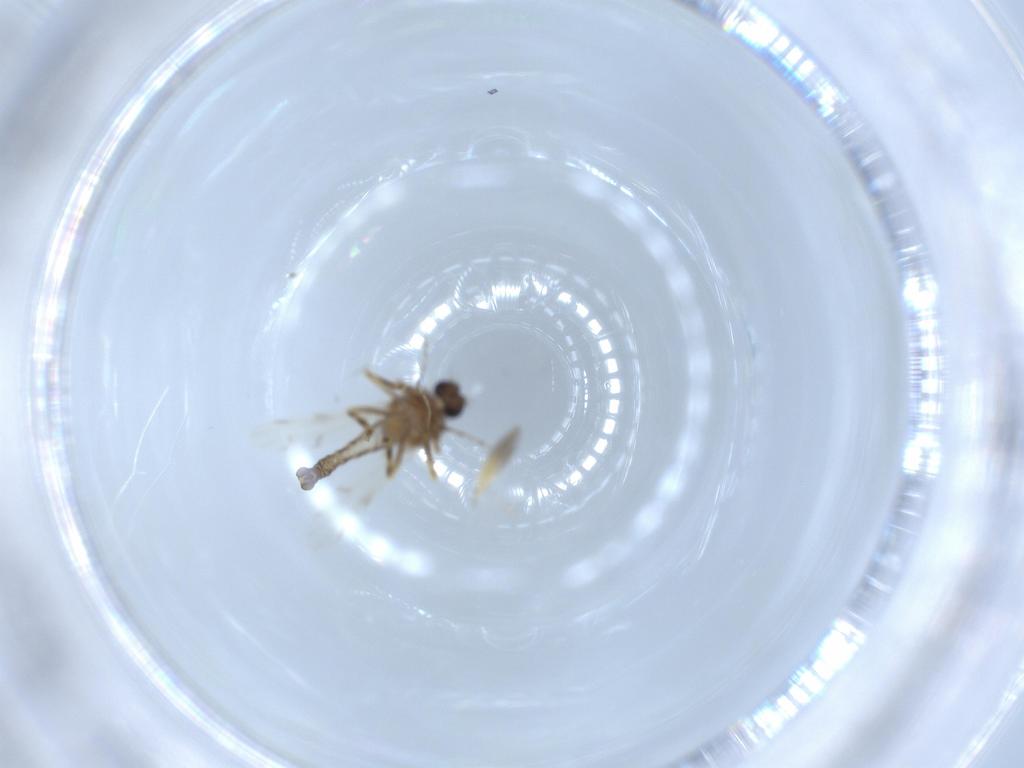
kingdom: Animalia
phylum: Arthropoda
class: Insecta
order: Diptera
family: Ceratopogonidae
